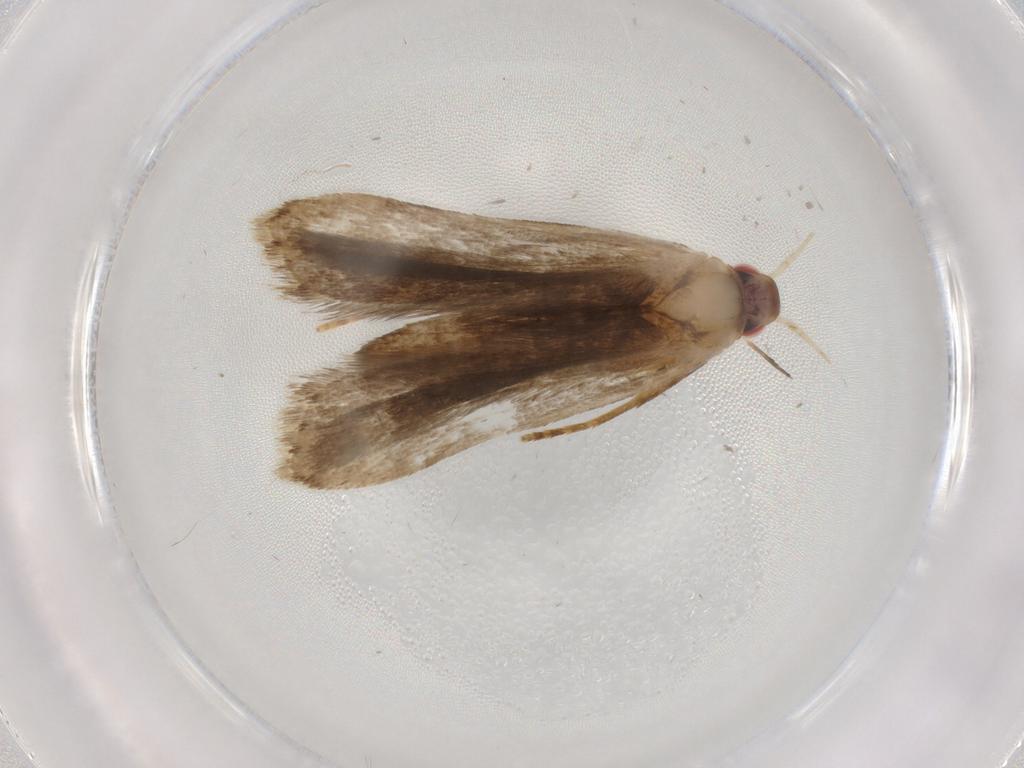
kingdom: Animalia
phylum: Arthropoda
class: Insecta
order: Lepidoptera
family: Gelechiidae
